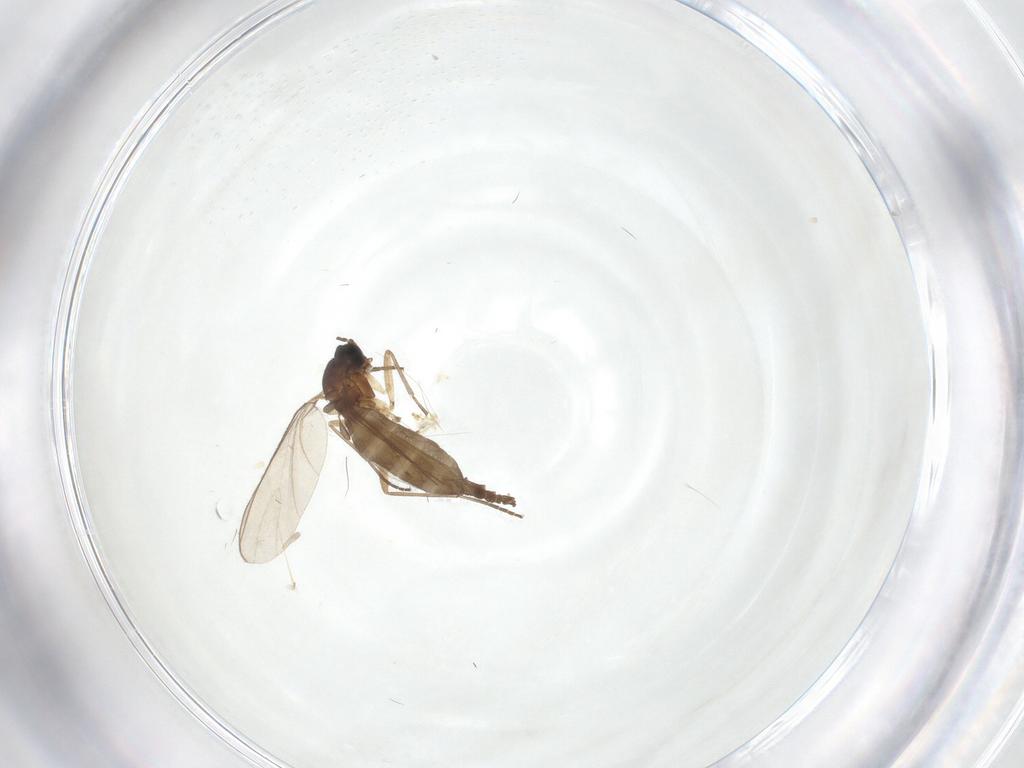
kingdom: Animalia
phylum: Arthropoda
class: Insecta
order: Diptera
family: Sciaridae
